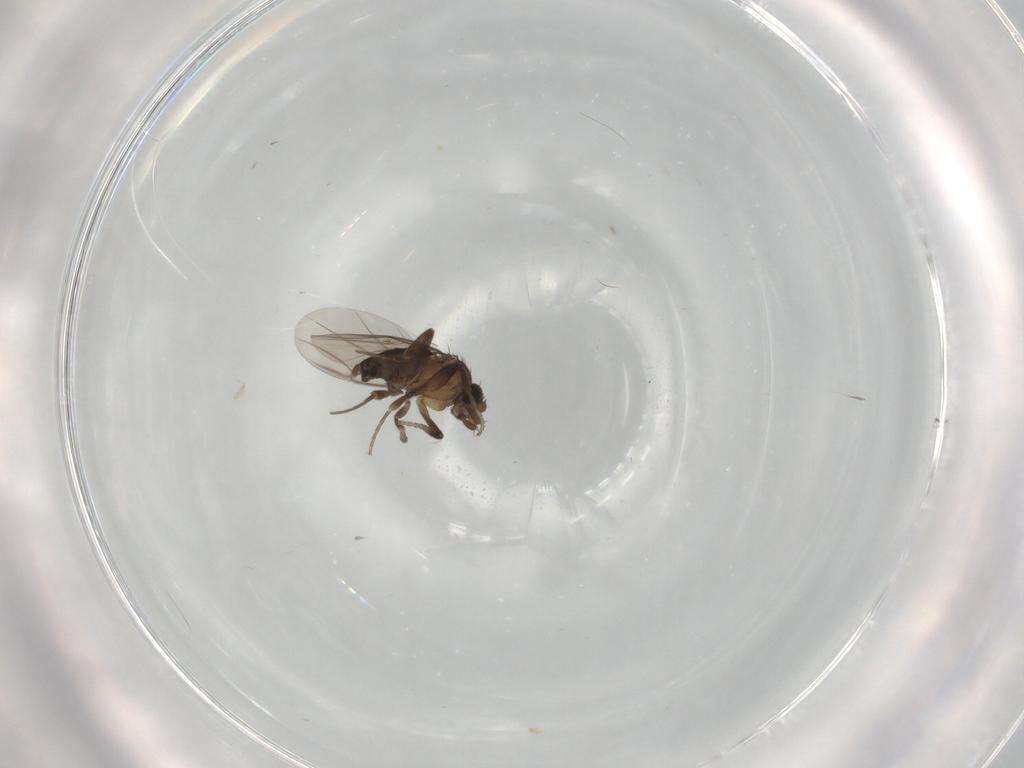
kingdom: Animalia
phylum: Arthropoda
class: Insecta
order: Diptera
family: Phoridae
